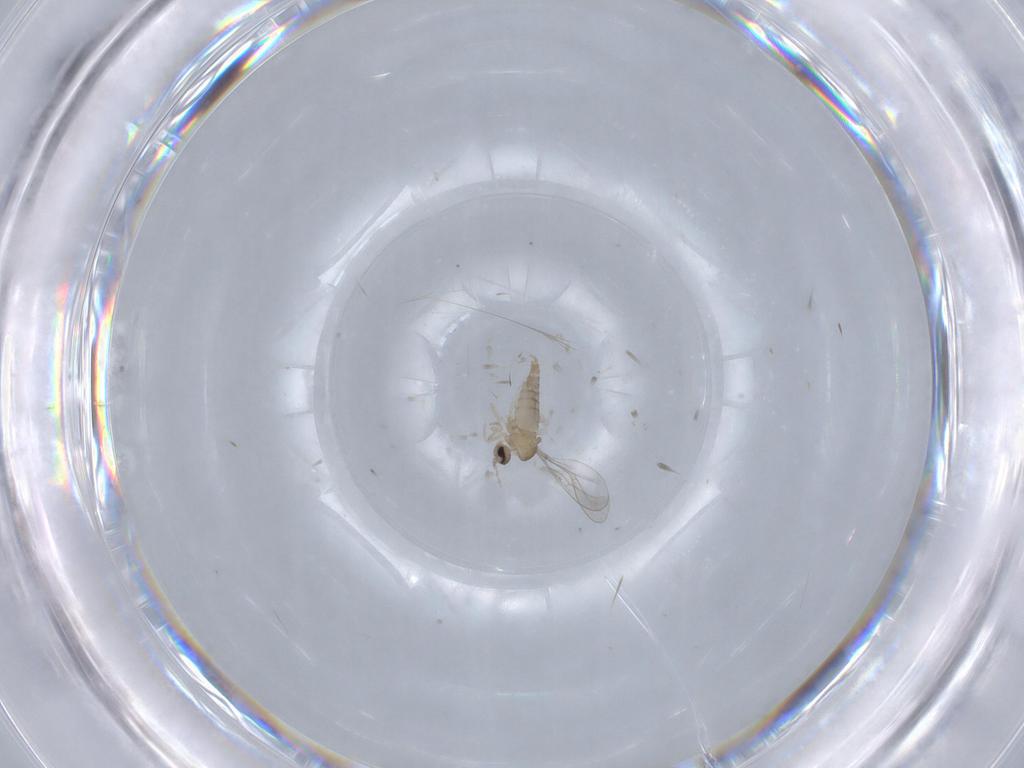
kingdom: Animalia
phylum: Arthropoda
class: Insecta
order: Diptera
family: Cecidomyiidae
